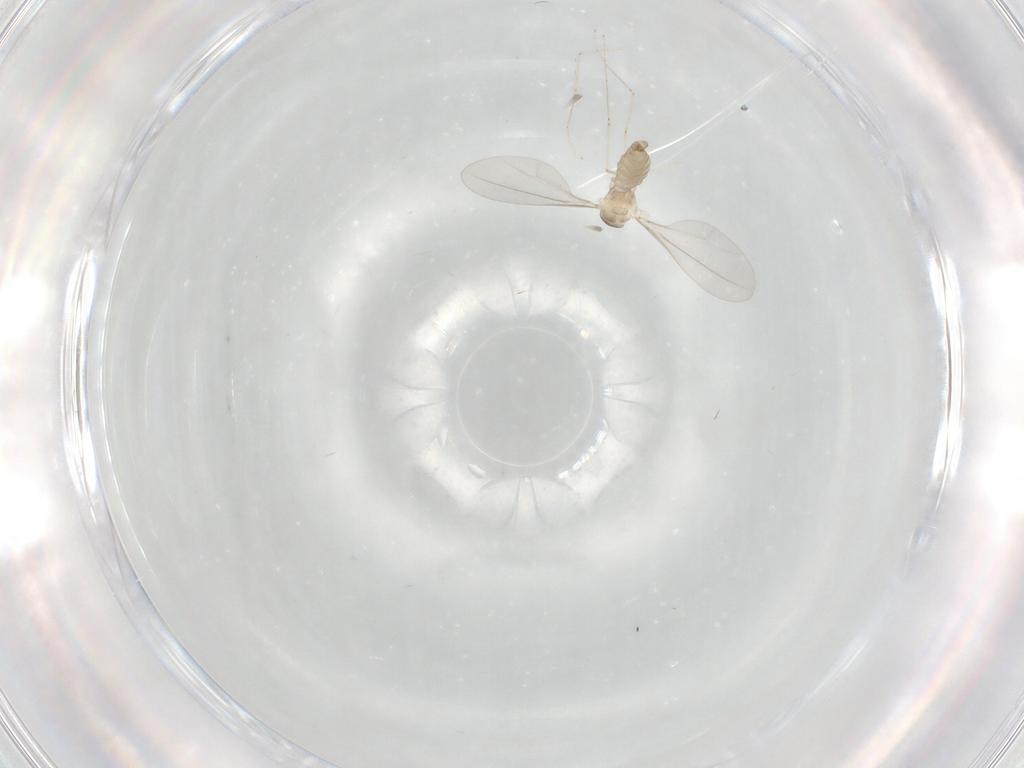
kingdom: Animalia
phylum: Arthropoda
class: Insecta
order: Diptera
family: Cecidomyiidae
